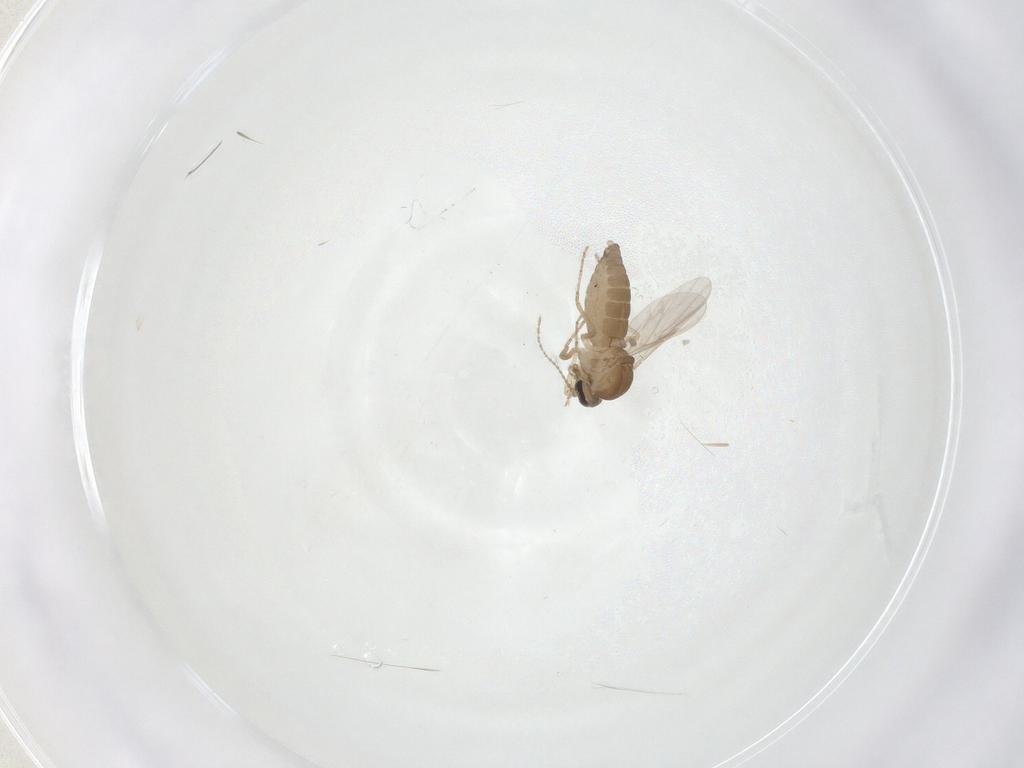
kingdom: Animalia
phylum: Arthropoda
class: Insecta
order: Diptera
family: Ceratopogonidae
